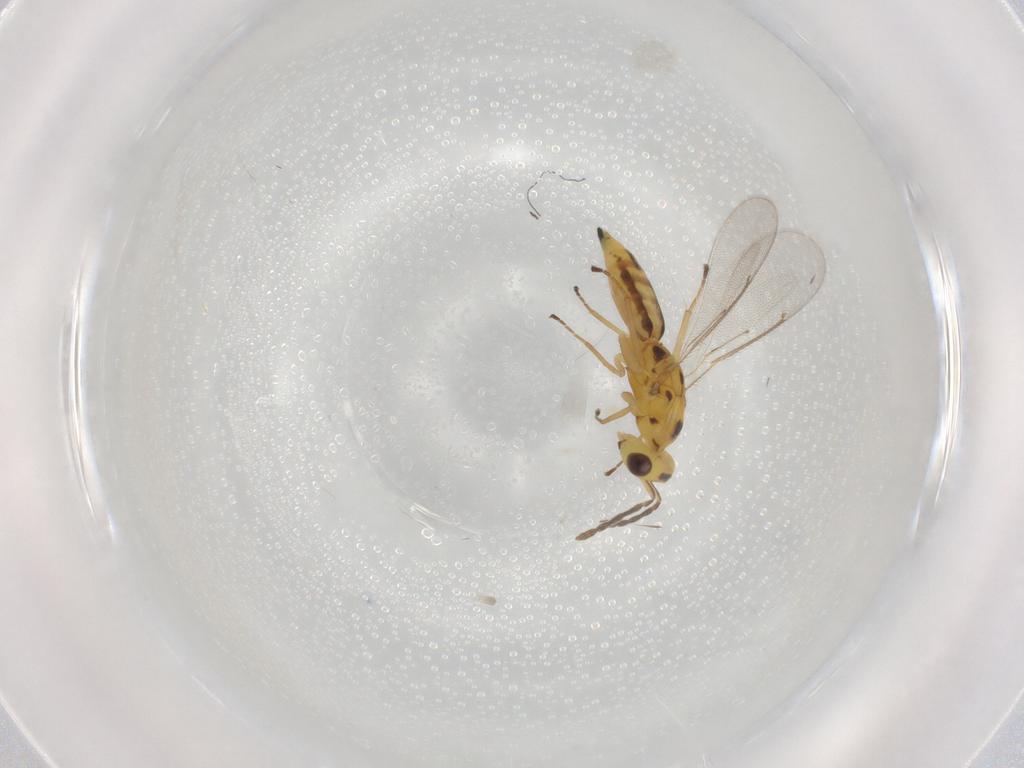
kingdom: Animalia
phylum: Arthropoda
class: Insecta
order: Hymenoptera
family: Eulophidae
